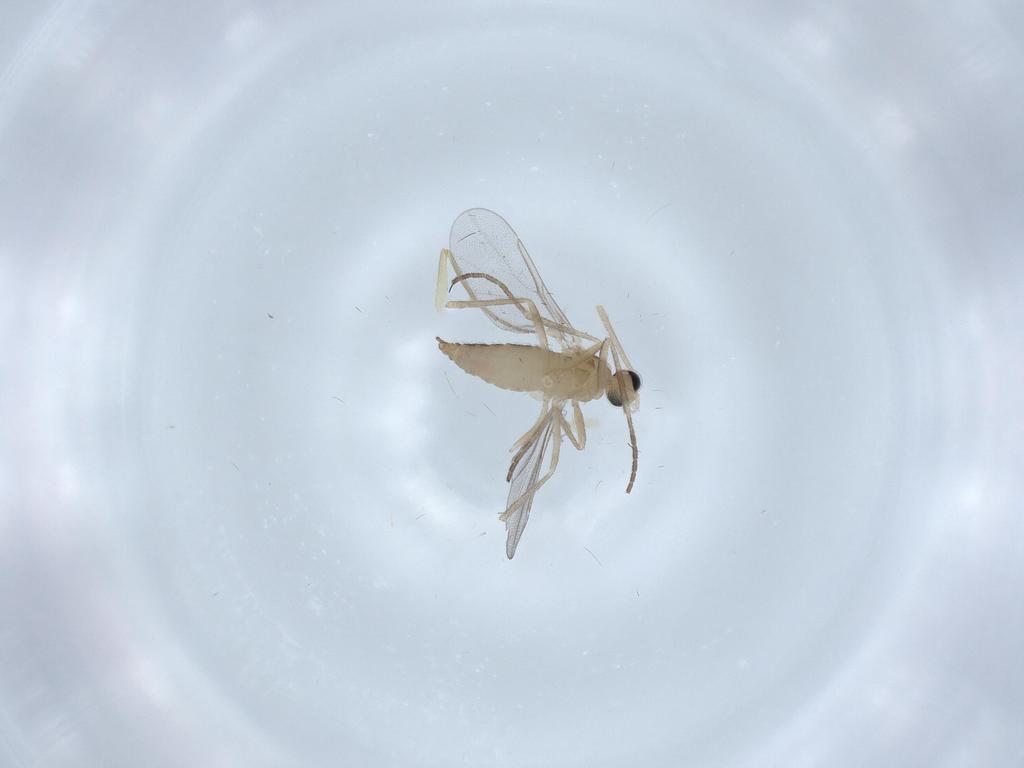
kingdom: Animalia
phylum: Arthropoda
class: Insecta
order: Diptera
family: Cecidomyiidae
